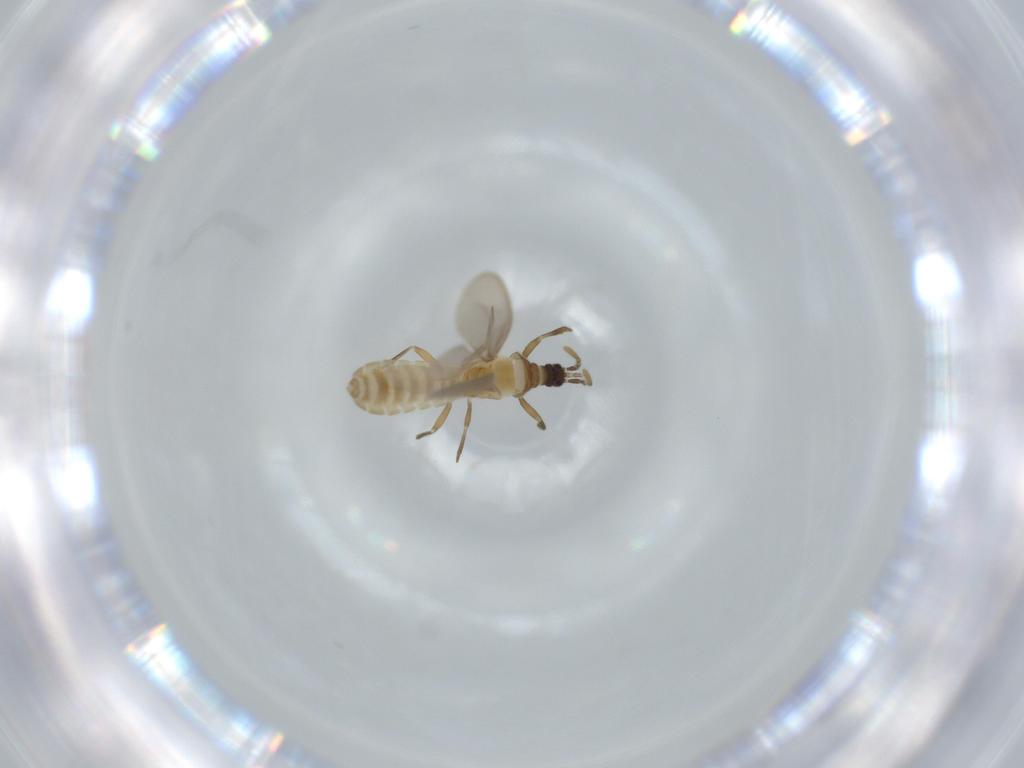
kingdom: Animalia
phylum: Arthropoda
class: Insecta
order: Hemiptera
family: Enicocephalidae
